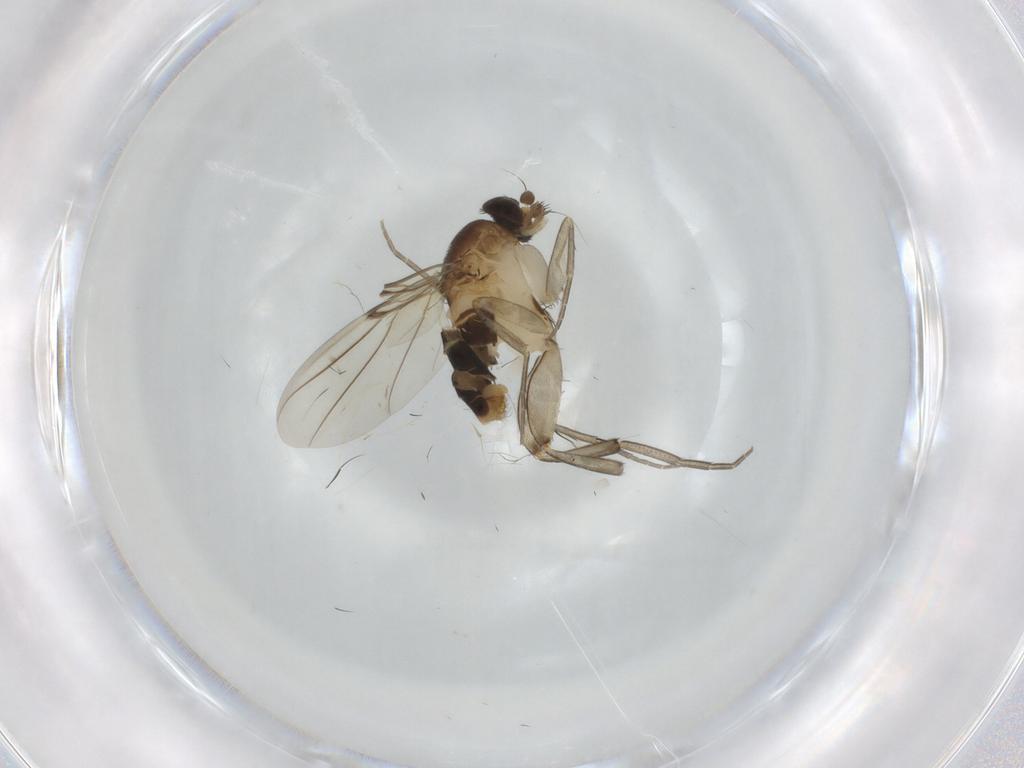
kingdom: Animalia
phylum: Arthropoda
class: Insecta
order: Diptera
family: Phoridae
